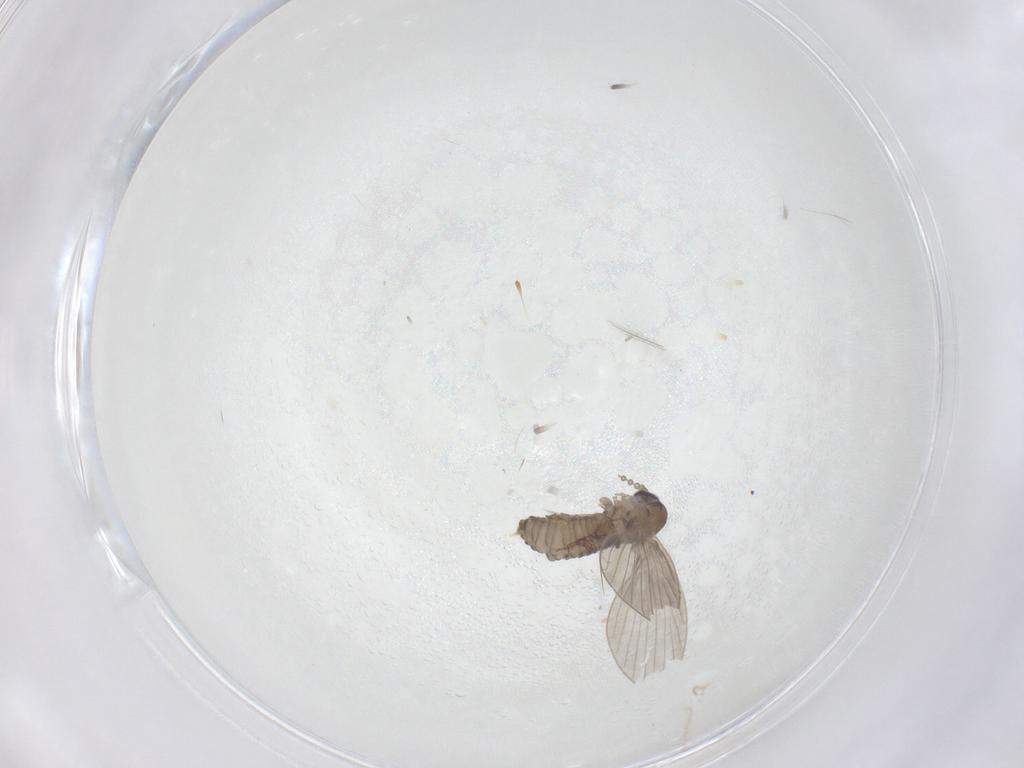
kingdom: Animalia
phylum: Arthropoda
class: Insecta
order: Diptera
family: Chironomidae
